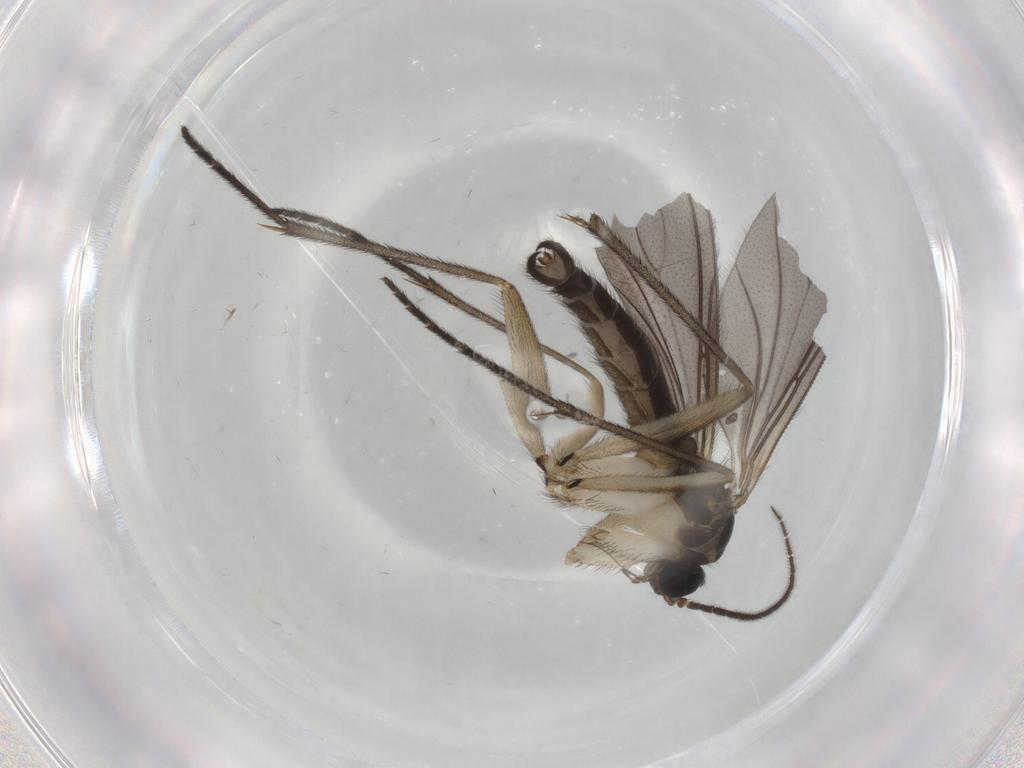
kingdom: Animalia
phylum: Arthropoda
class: Insecta
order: Diptera
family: Sciaridae
